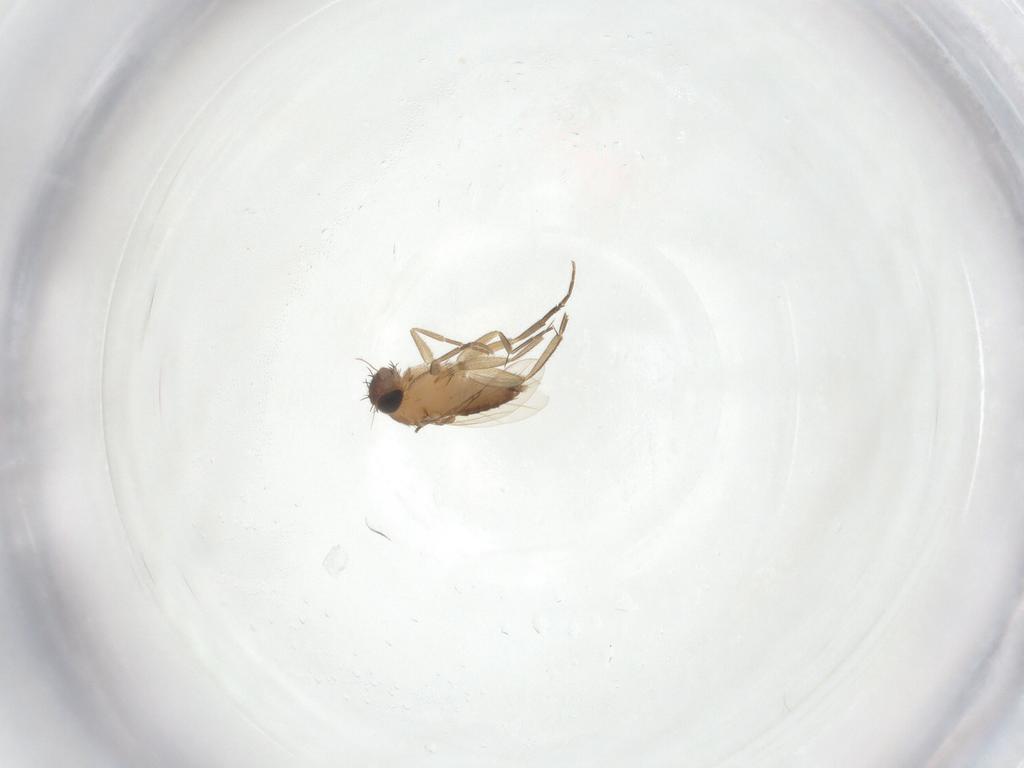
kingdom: Animalia
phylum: Arthropoda
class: Insecta
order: Diptera
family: Phoridae
